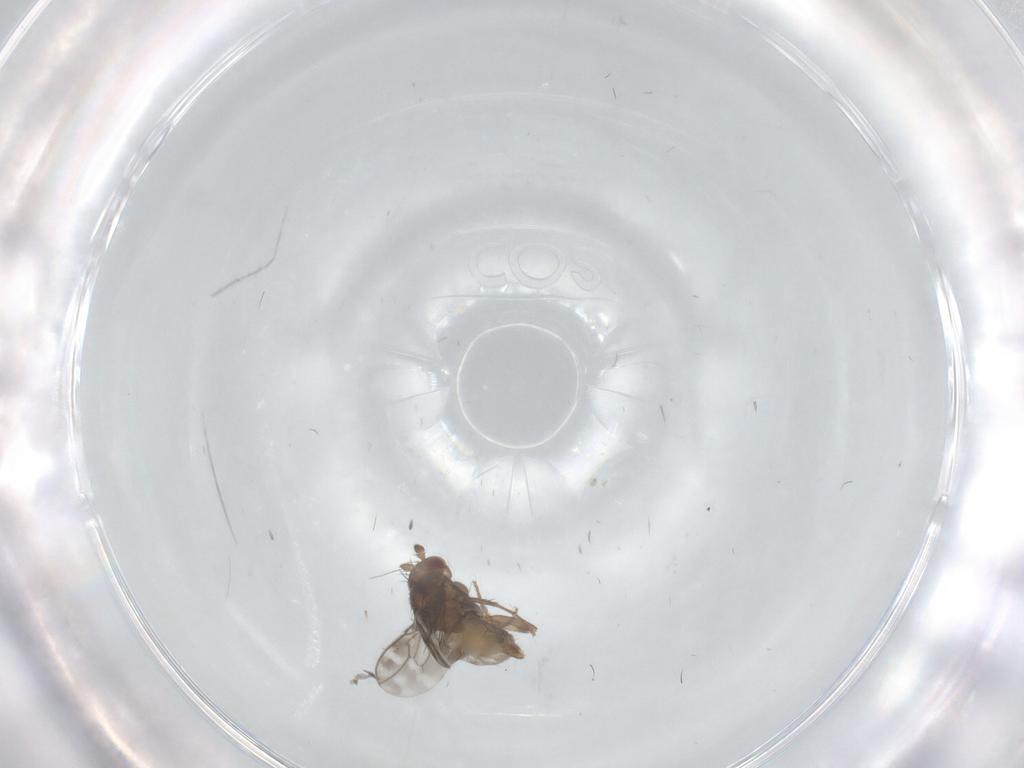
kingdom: Animalia
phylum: Arthropoda
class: Insecta
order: Diptera
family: Sphaeroceridae
